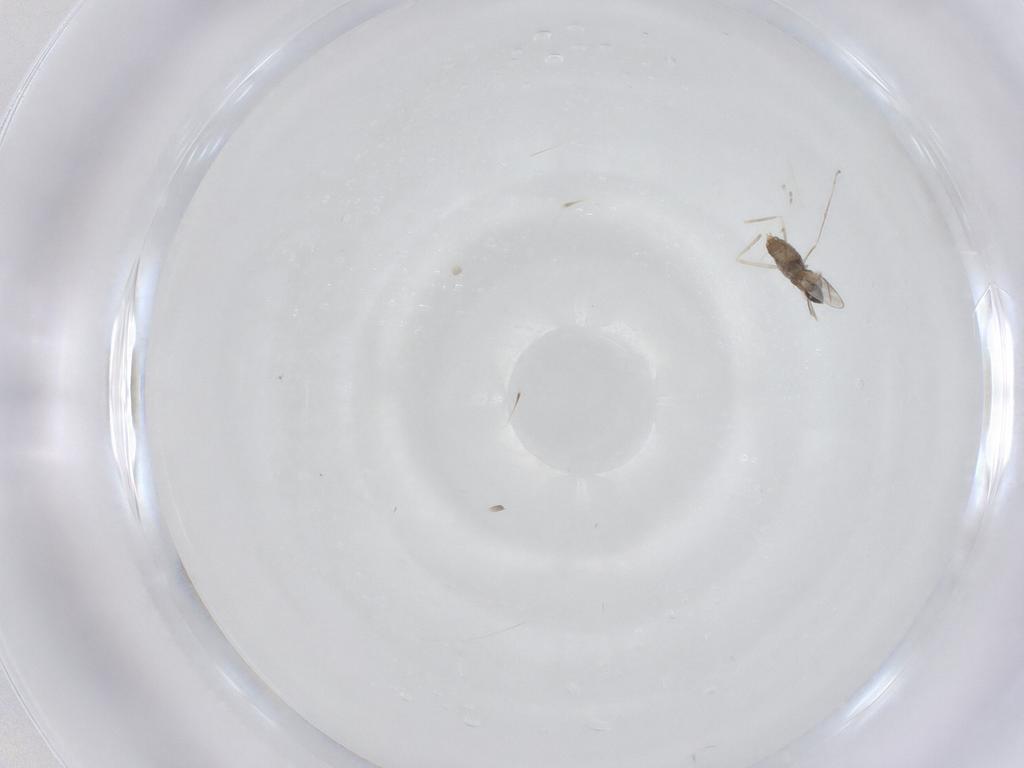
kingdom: Animalia
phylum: Arthropoda
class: Insecta
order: Diptera
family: Cecidomyiidae
